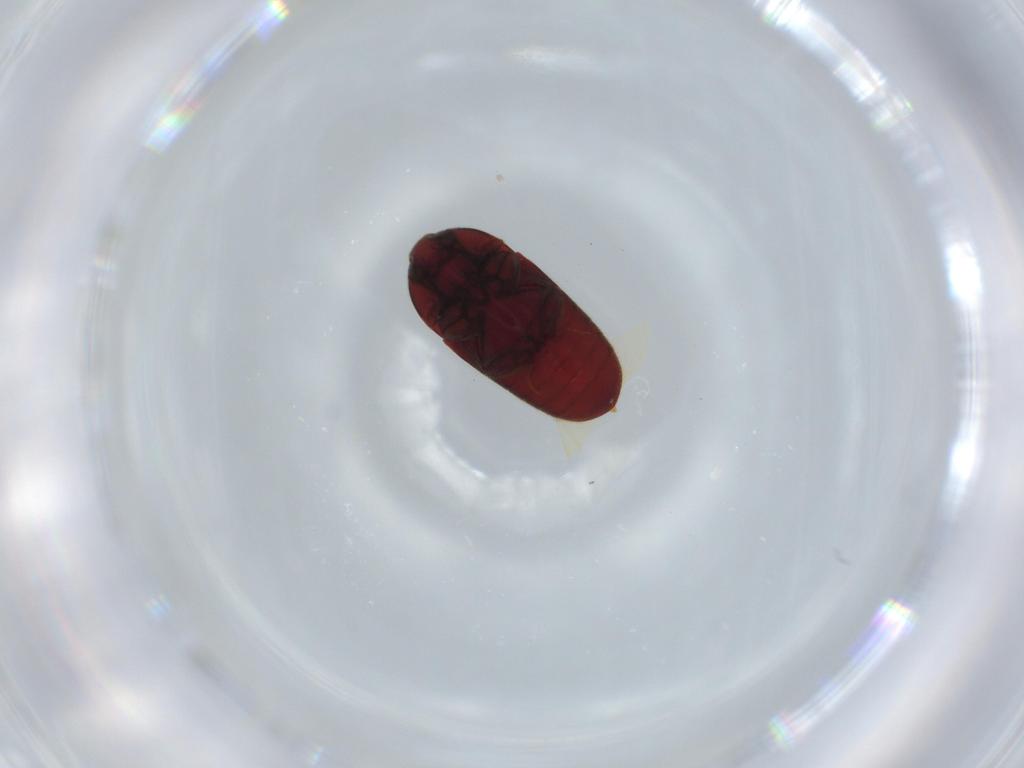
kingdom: Animalia
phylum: Arthropoda
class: Insecta
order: Coleoptera
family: Throscidae
